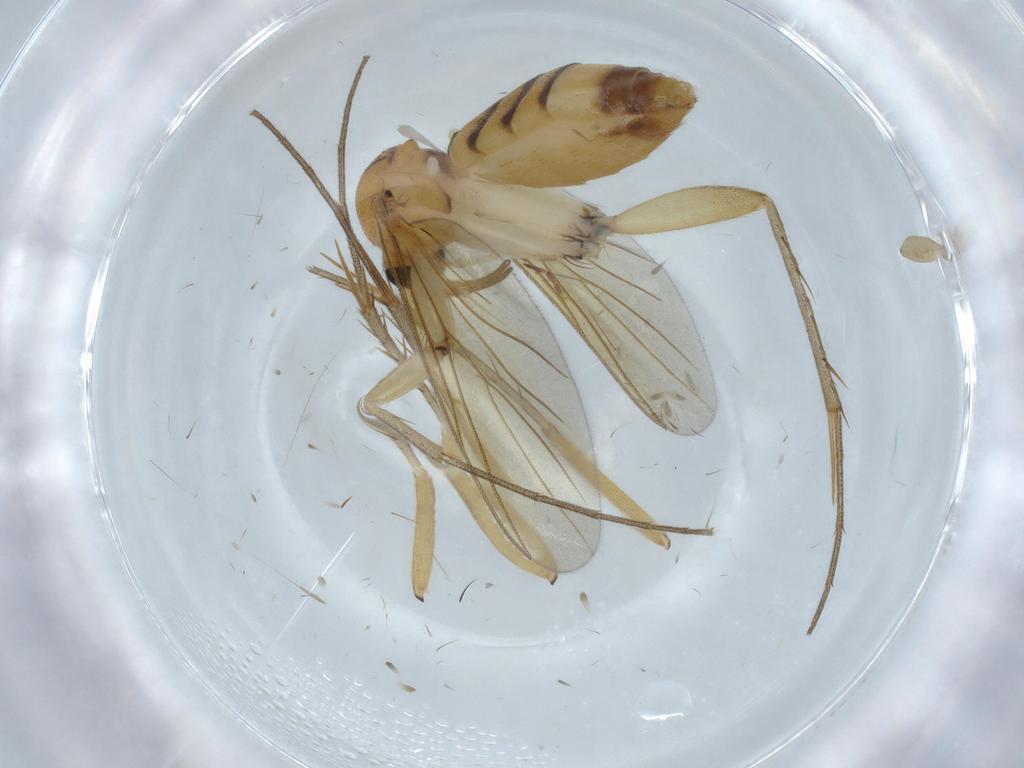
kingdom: Animalia
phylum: Arthropoda
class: Insecta
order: Diptera
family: Mycetophilidae
